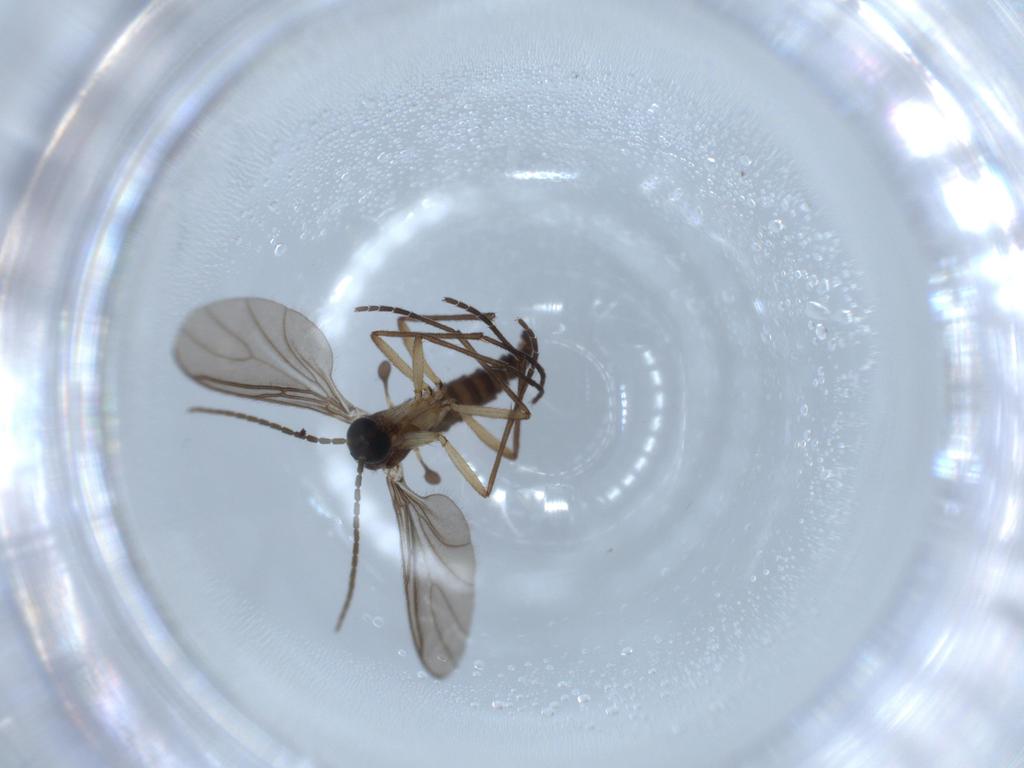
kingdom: Animalia
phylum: Arthropoda
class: Insecta
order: Diptera
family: Sciaridae
